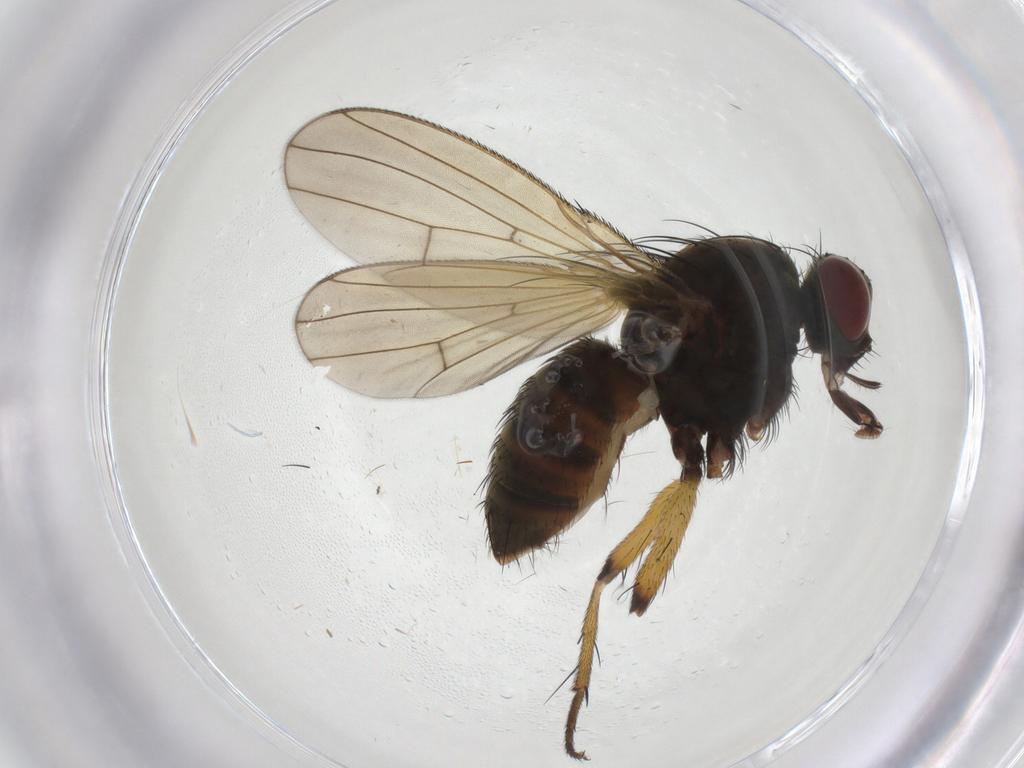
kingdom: Animalia
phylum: Arthropoda
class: Insecta
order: Diptera
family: Muscidae
